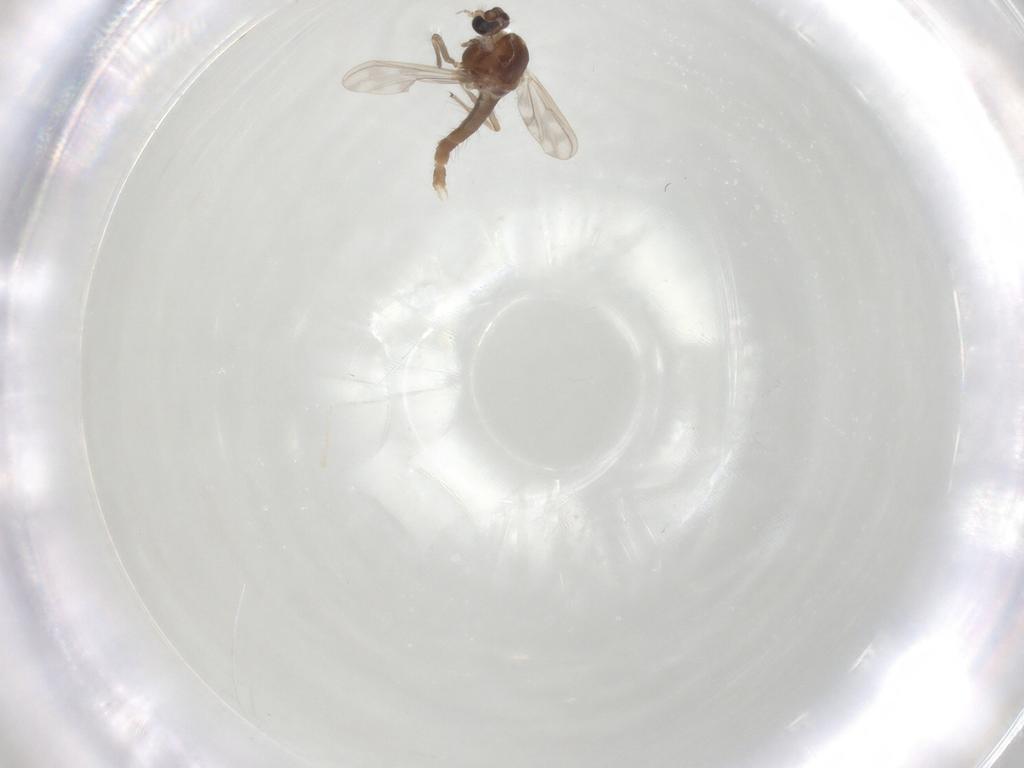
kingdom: Animalia
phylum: Arthropoda
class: Insecta
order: Diptera
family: Chironomidae
